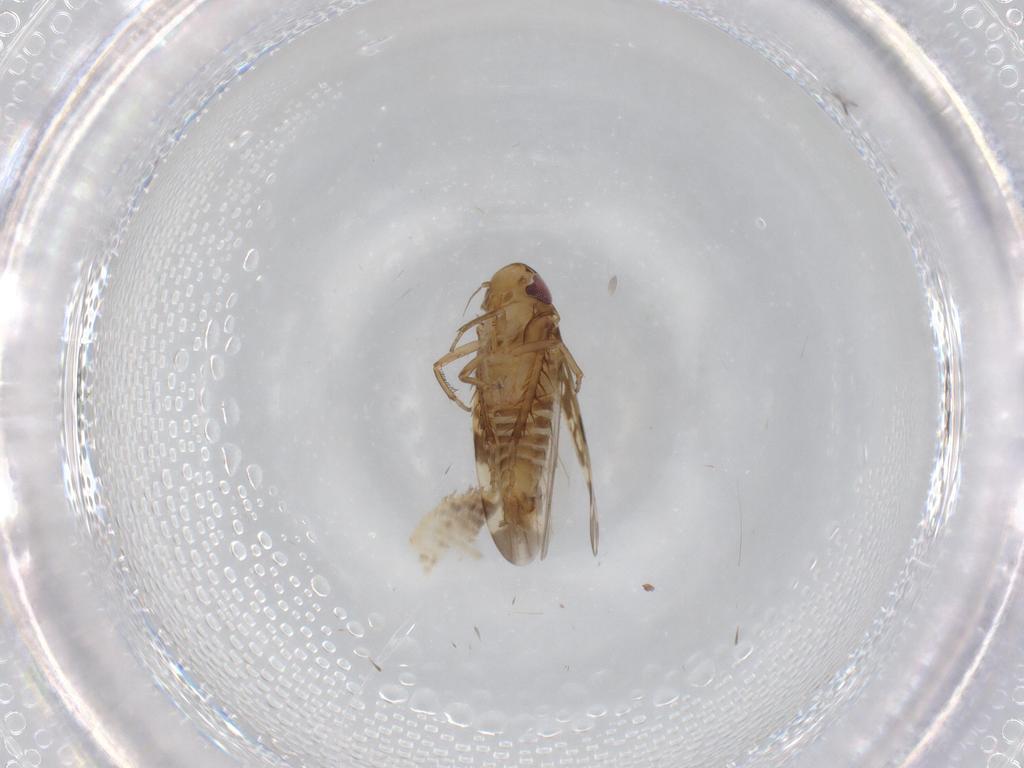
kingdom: Animalia
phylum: Arthropoda
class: Insecta
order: Hemiptera
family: Cicadellidae
